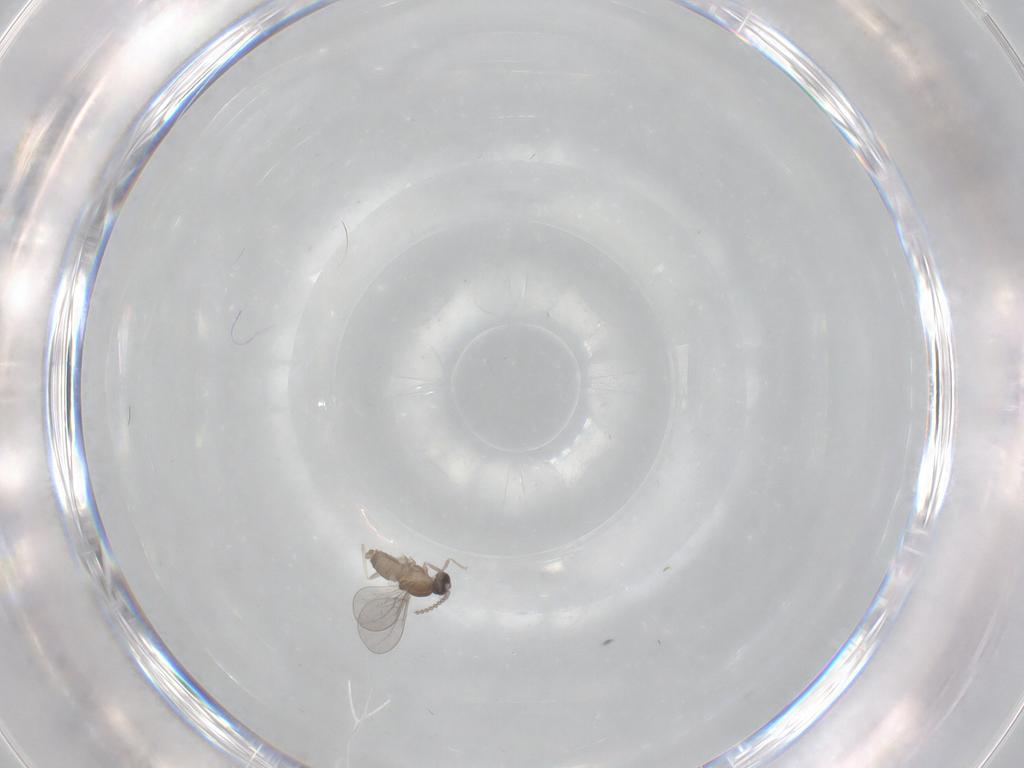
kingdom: Animalia
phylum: Arthropoda
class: Insecta
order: Diptera
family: Cecidomyiidae
